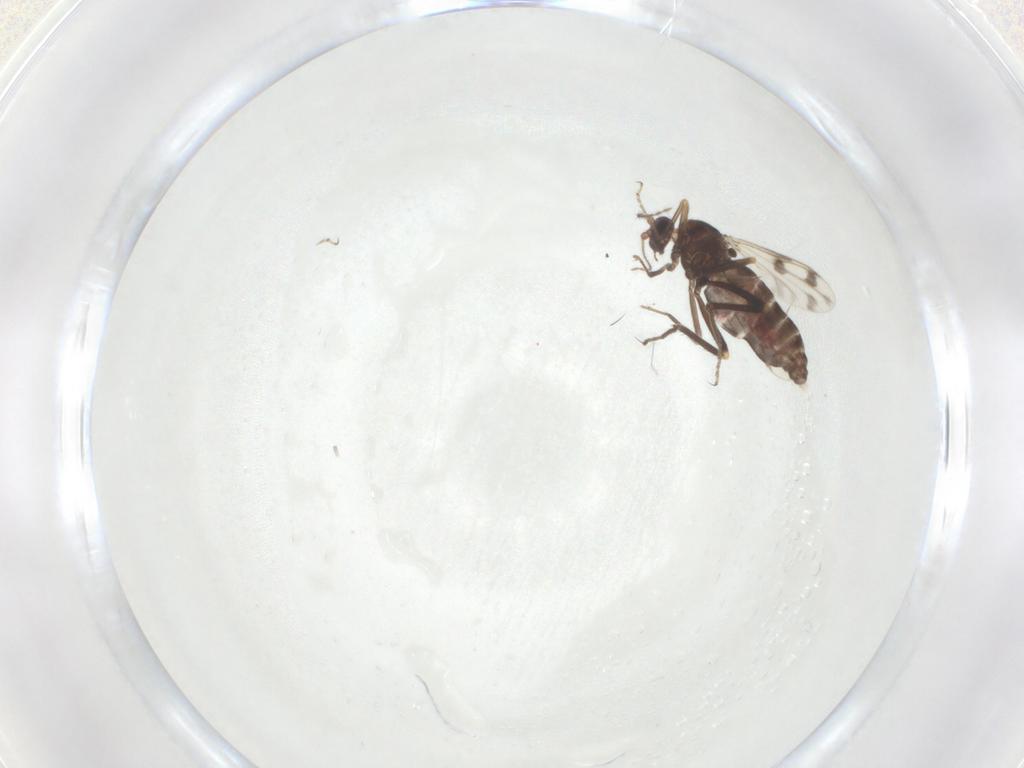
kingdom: Animalia
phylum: Arthropoda
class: Insecta
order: Diptera
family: Ceratopogonidae
